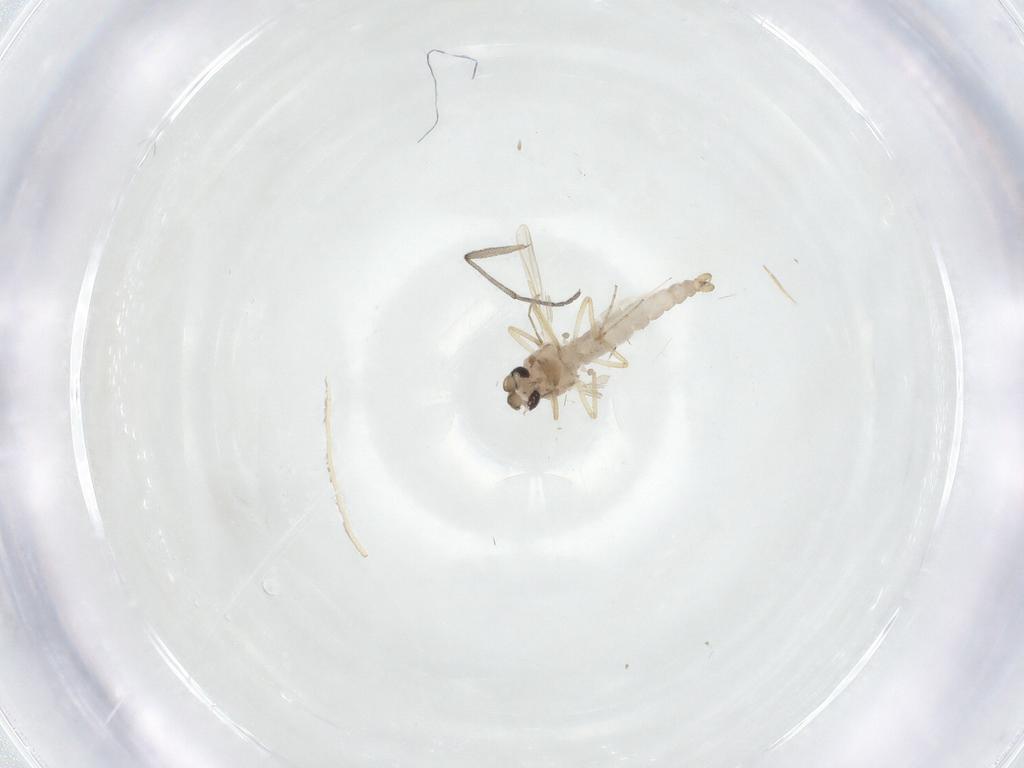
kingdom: Animalia
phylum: Arthropoda
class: Insecta
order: Diptera
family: Ceratopogonidae
